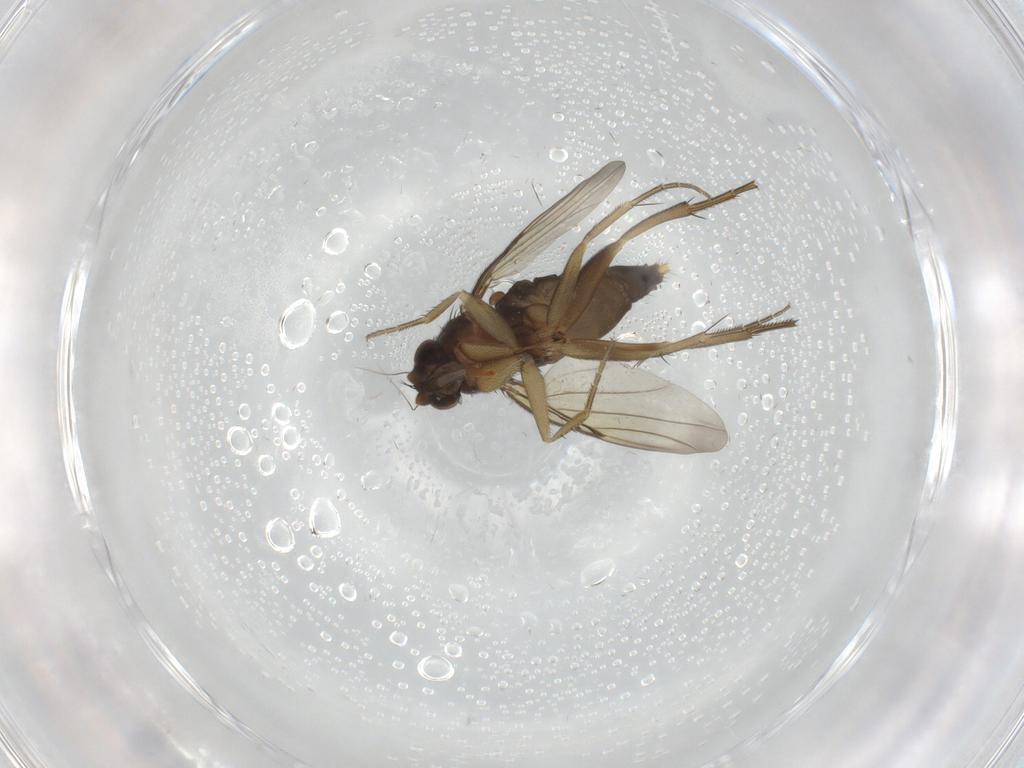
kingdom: Animalia
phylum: Arthropoda
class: Insecta
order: Diptera
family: Phoridae
